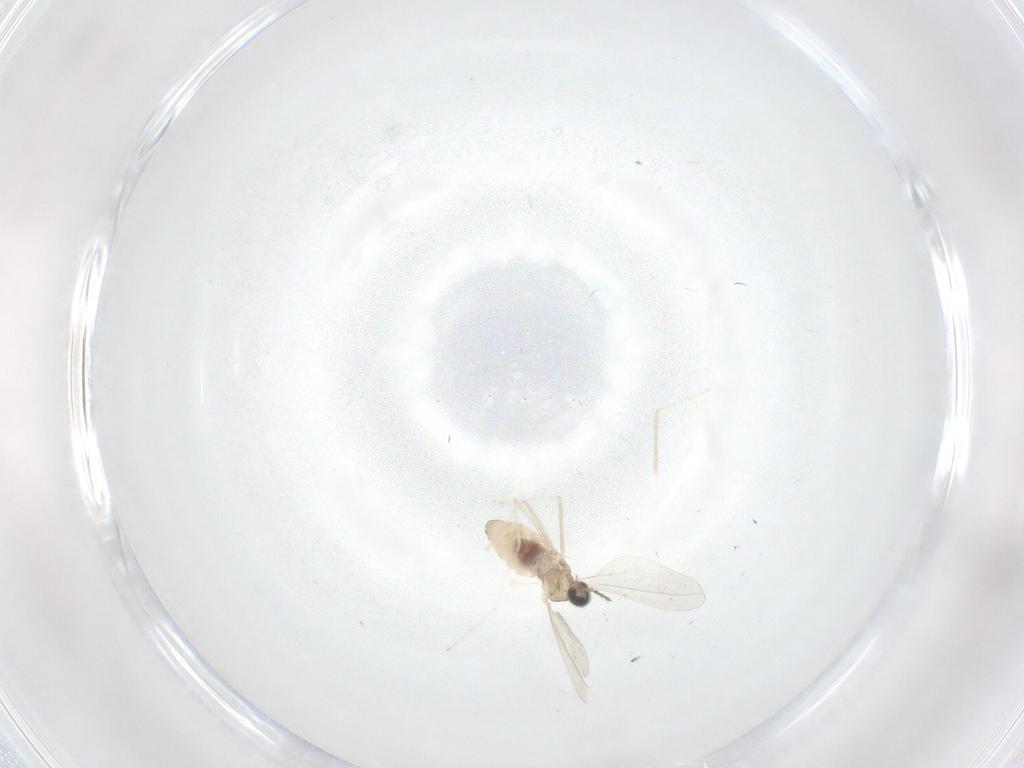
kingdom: Animalia
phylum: Arthropoda
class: Insecta
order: Diptera
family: Cecidomyiidae
